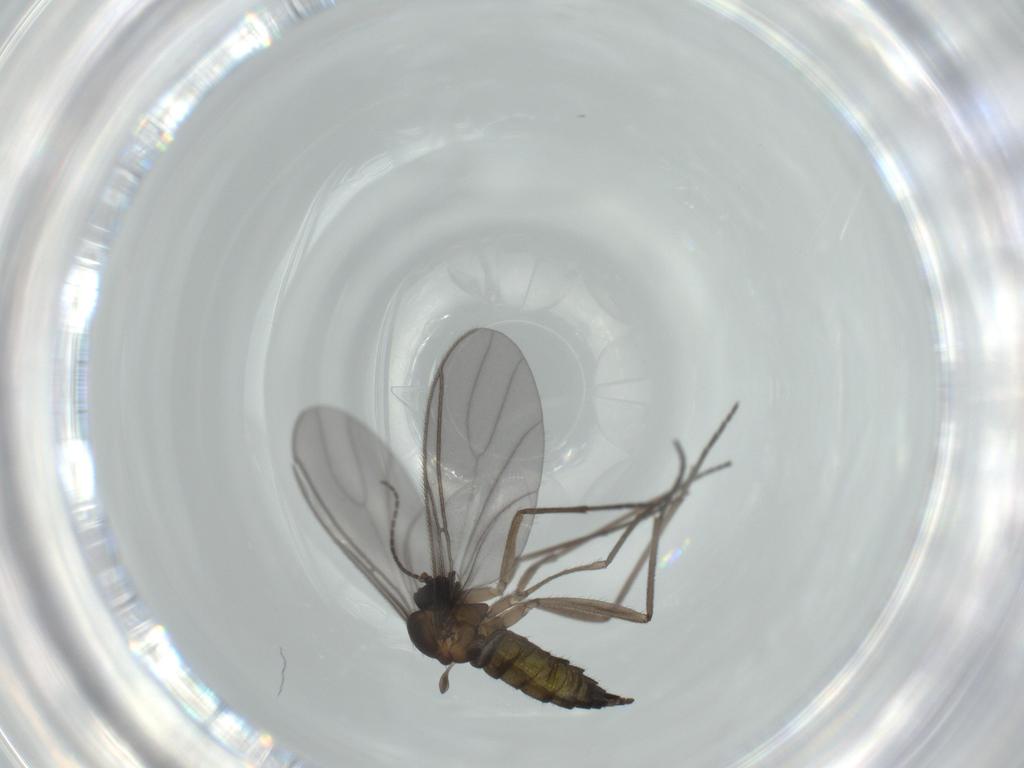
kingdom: Animalia
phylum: Arthropoda
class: Insecta
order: Diptera
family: Sciaridae
